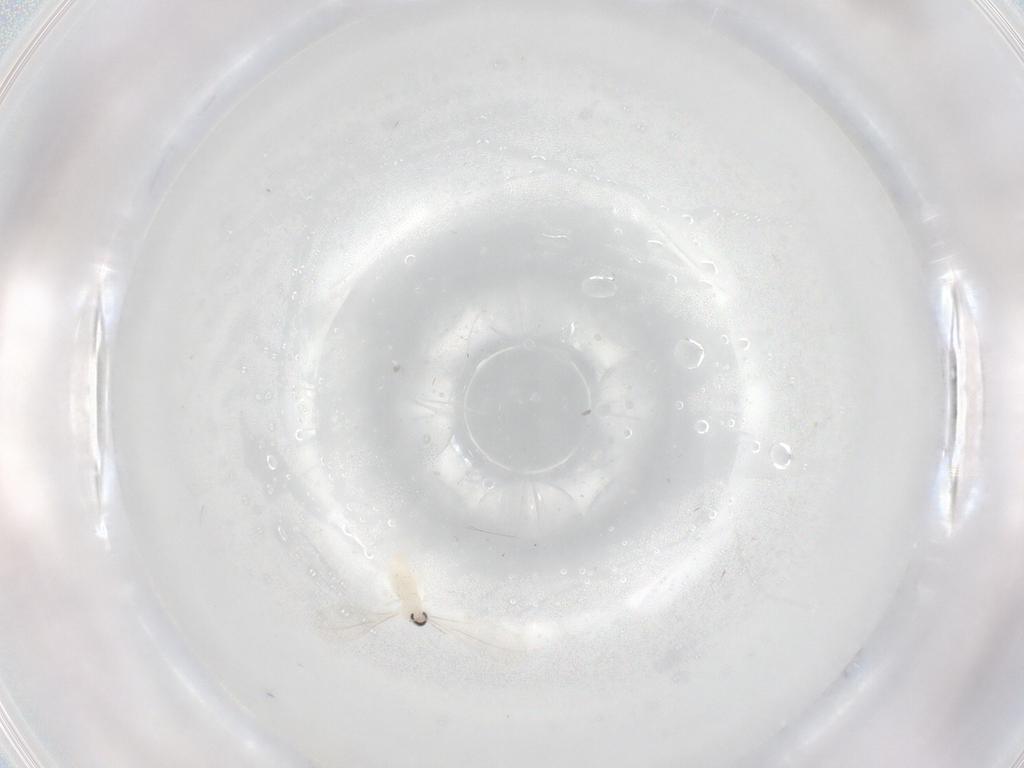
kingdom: Animalia
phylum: Arthropoda
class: Insecta
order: Diptera
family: Cecidomyiidae
